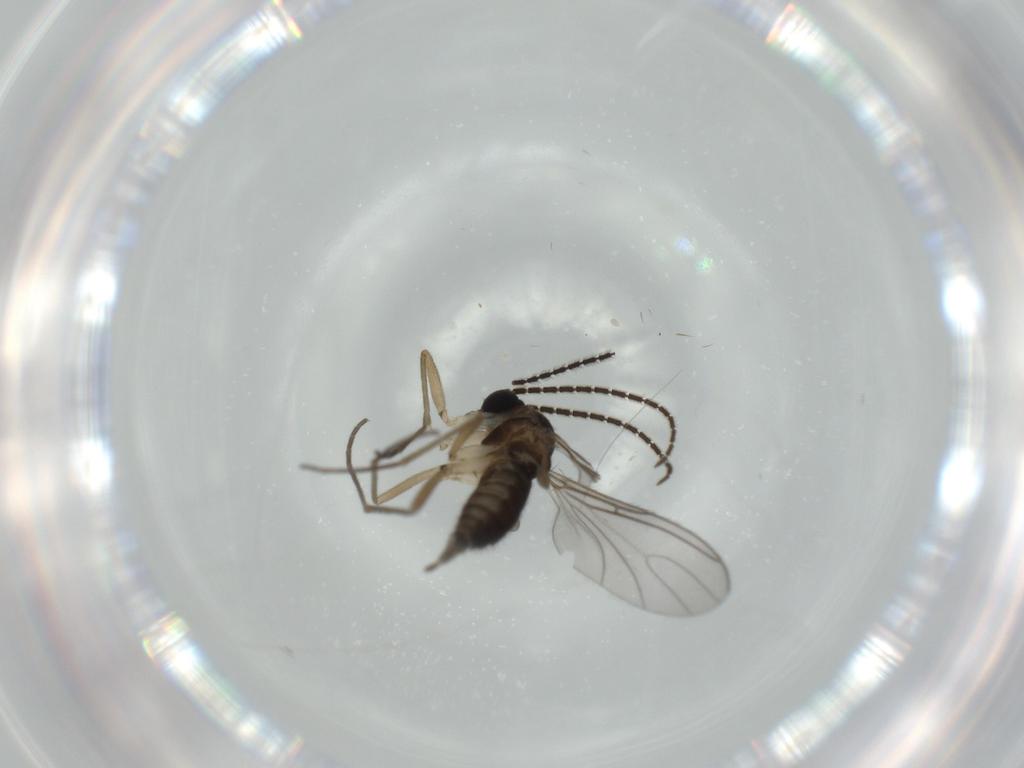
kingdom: Animalia
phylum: Arthropoda
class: Insecta
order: Diptera
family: Sciaridae
